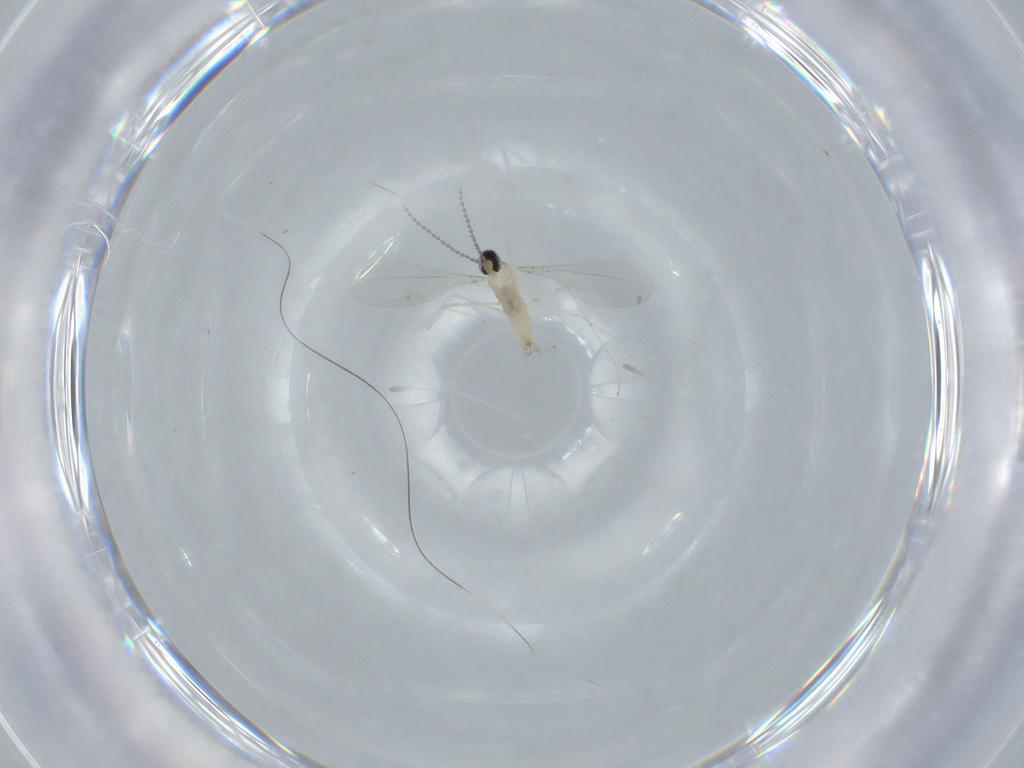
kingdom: Animalia
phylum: Arthropoda
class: Insecta
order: Diptera
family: Cecidomyiidae
